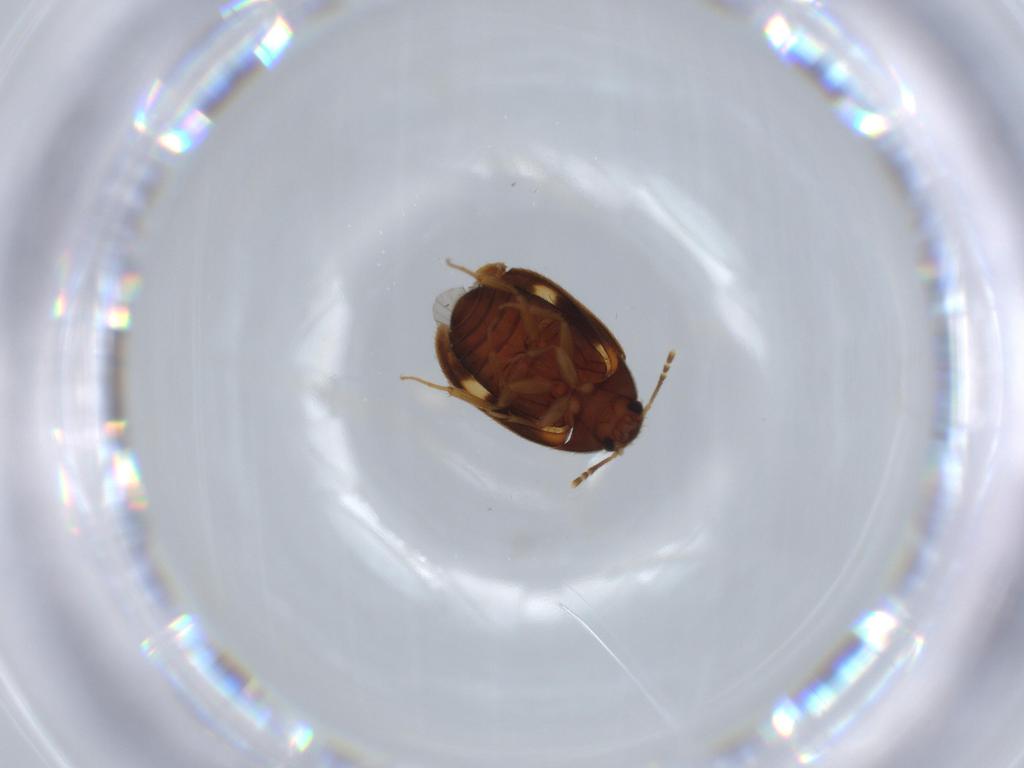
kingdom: Animalia
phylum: Arthropoda
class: Insecta
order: Coleoptera
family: Mycetophagidae
